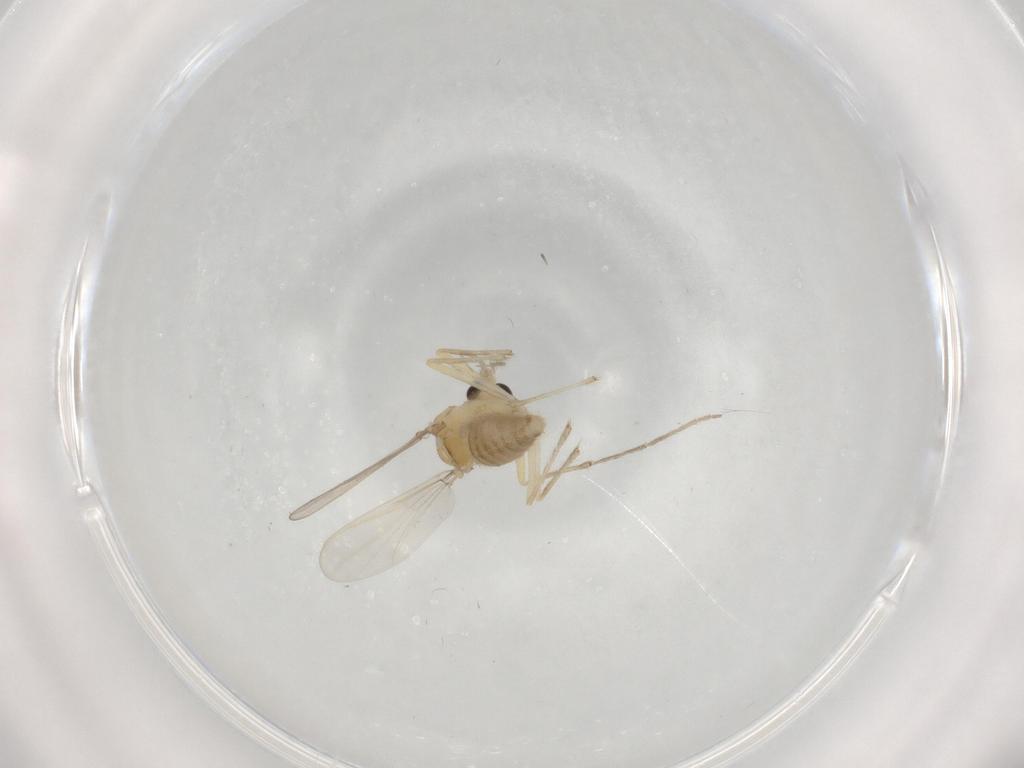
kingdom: Animalia
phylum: Arthropoda
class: Insecta
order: Diptera
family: Chironomidae
